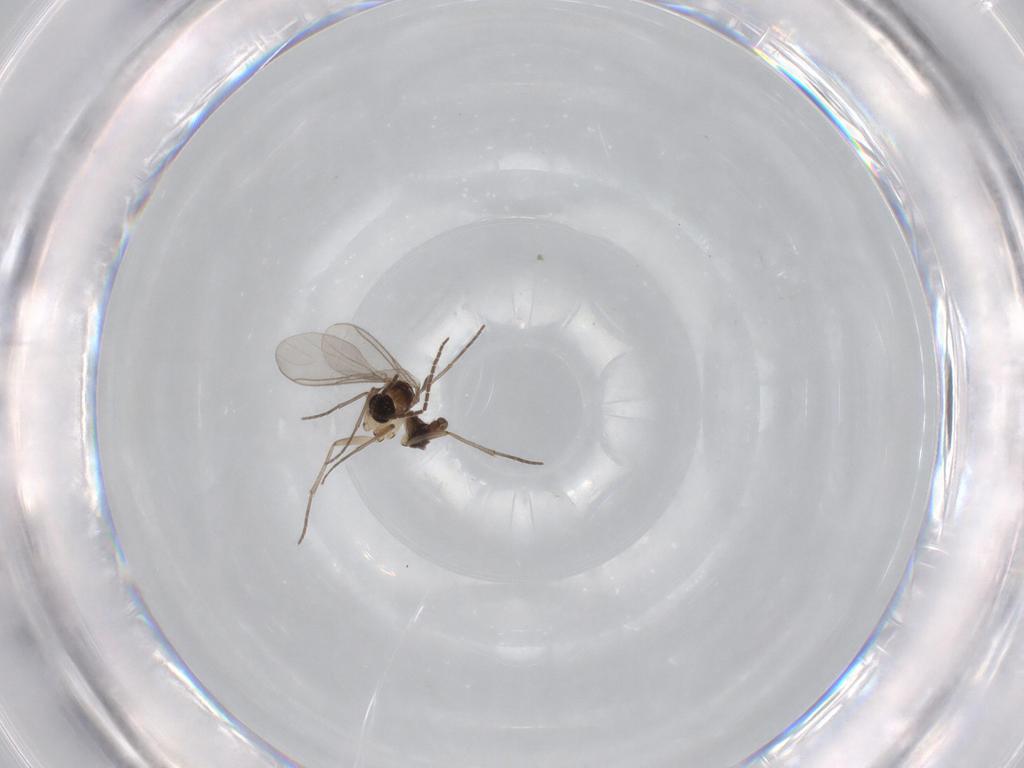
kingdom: Animalia
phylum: Arthropoda
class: Insecta
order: Diptera
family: Sciaridae
